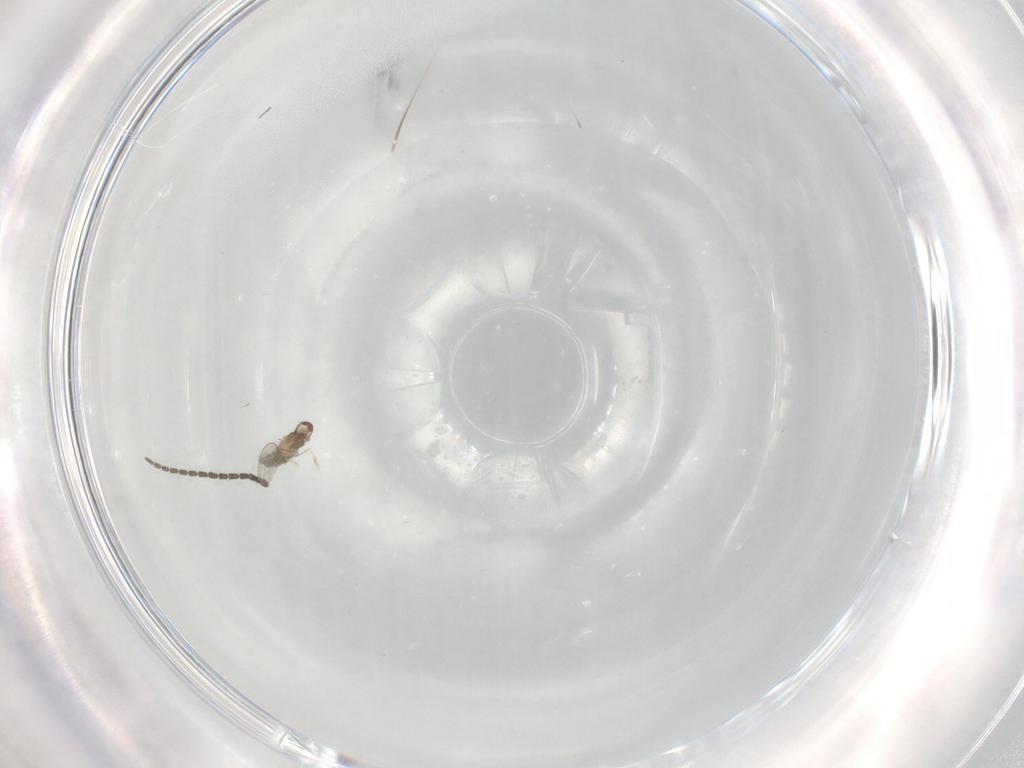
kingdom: Animalia
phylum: Arthropoda
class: Insecta
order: Diptera
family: Cecidomyiidae
